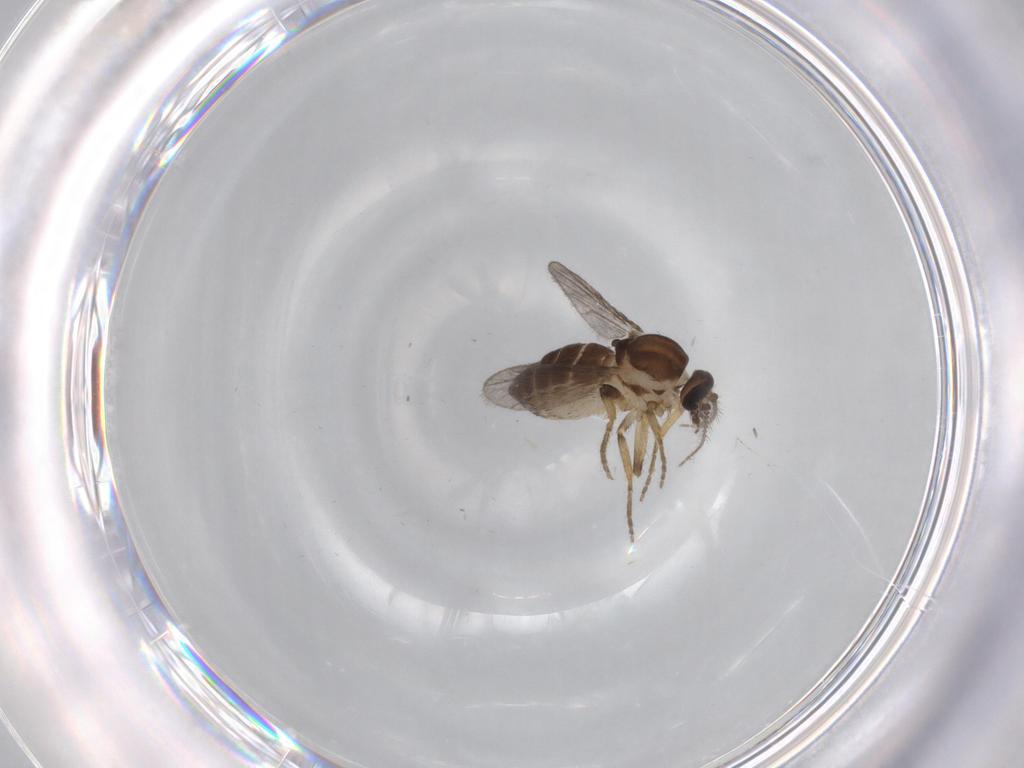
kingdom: Animalia
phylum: Arthropoda
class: Insecta
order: Diptera
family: Ceratopogonidae
